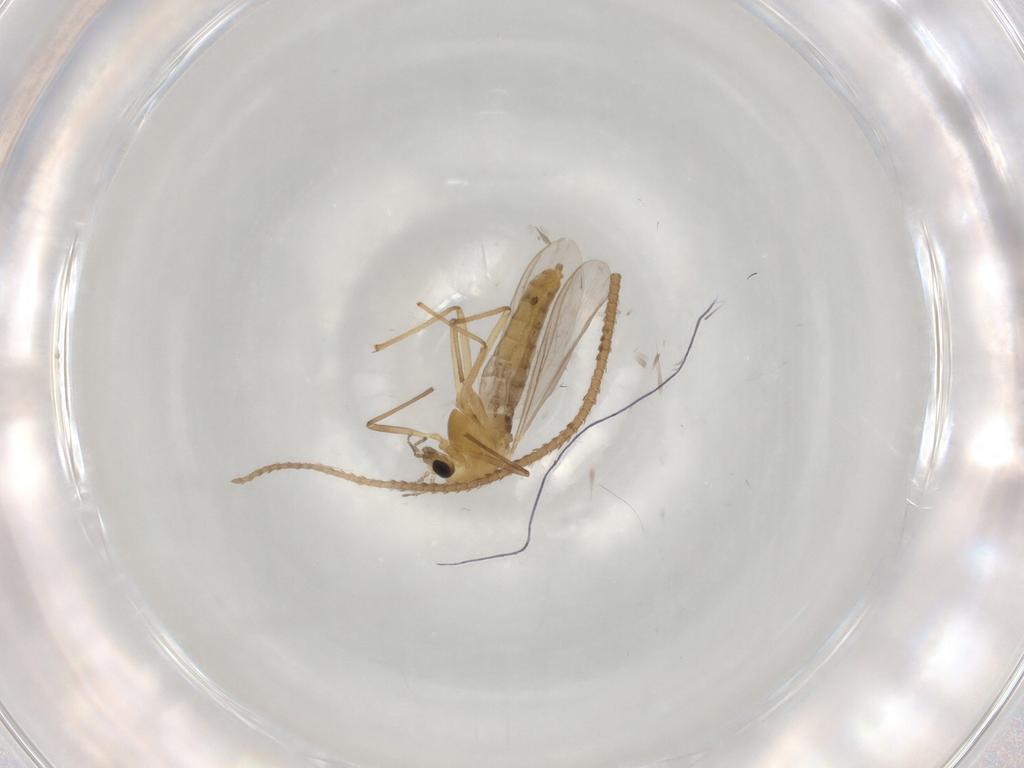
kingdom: Animalia
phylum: Arthropoda
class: Insecta
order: Diptera
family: Chironomidae
